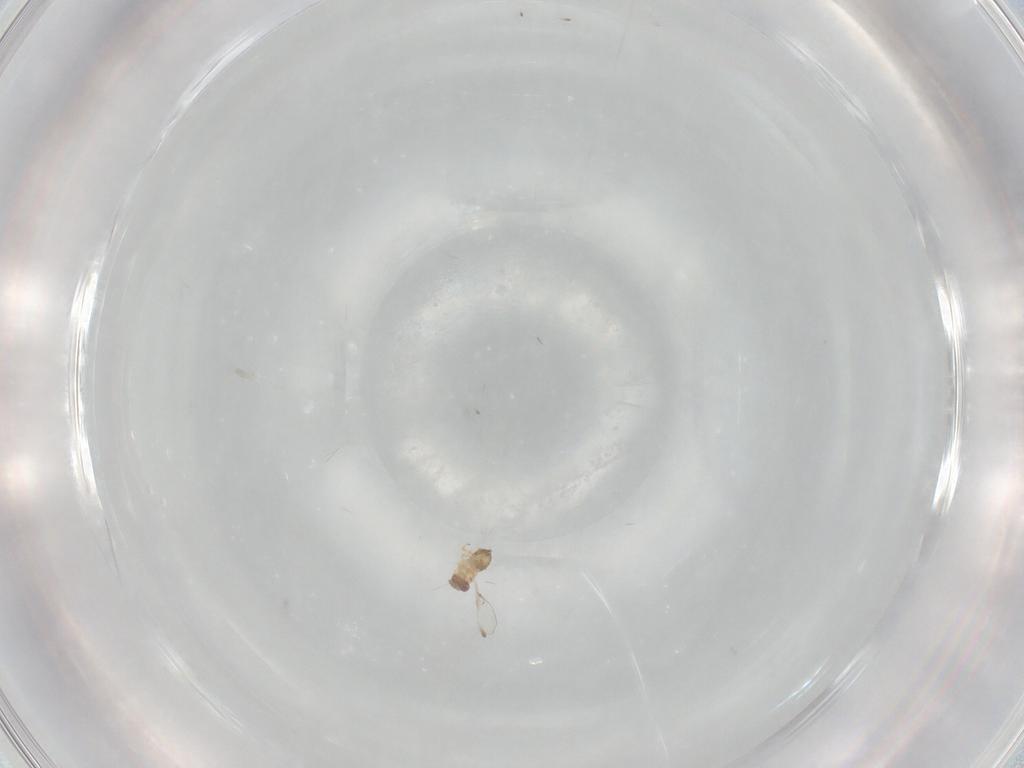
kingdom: Animalia
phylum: Arthropoda
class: Insecta
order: Hymenoptera
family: Trichogrammatidae
